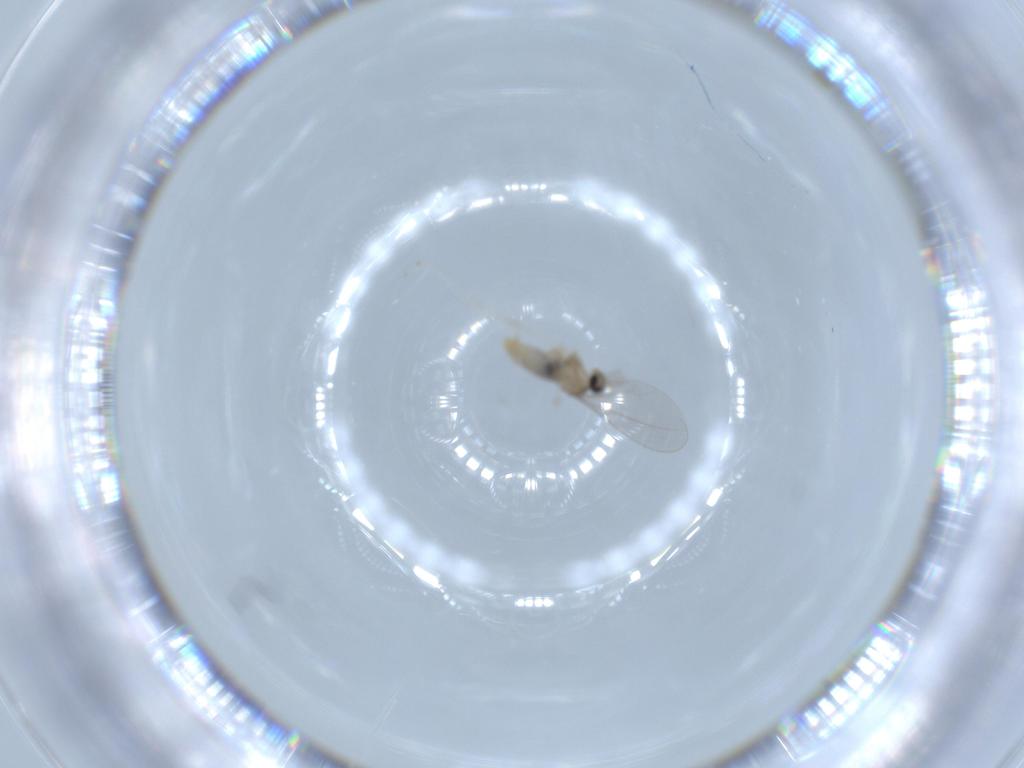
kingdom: Animalia
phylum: Arthropoda
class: Insecta
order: Diptera
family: Cecidomyiidae
